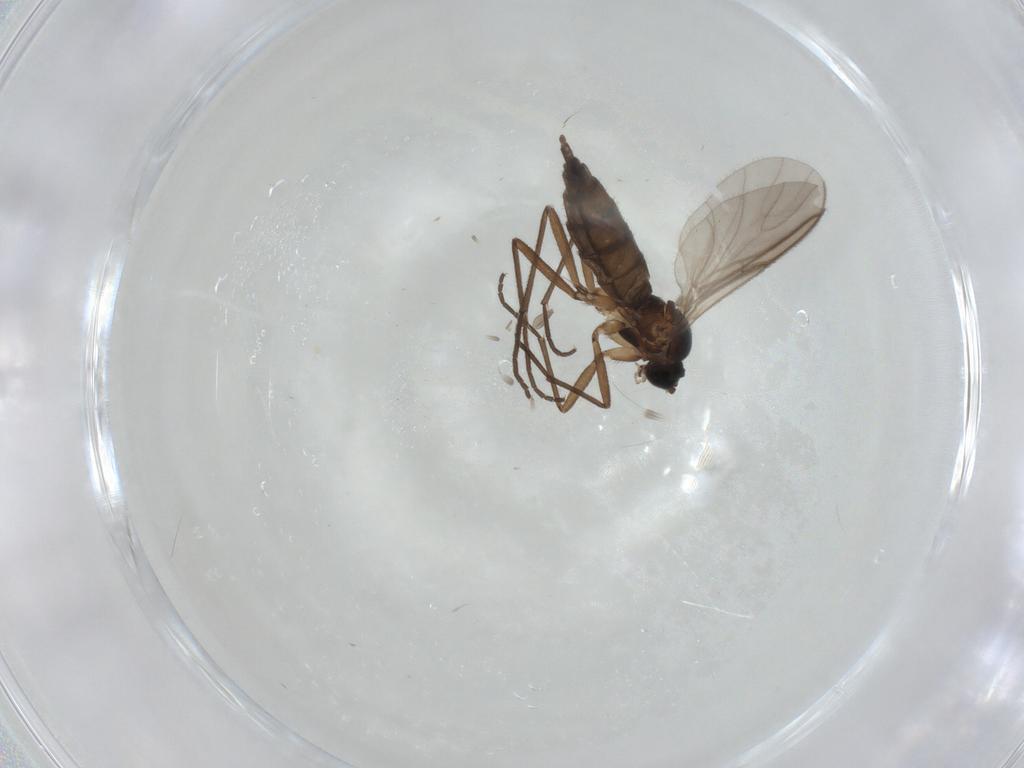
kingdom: Animalia
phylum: Arthropoda
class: Insecta
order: Diptera
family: Sciaridae
